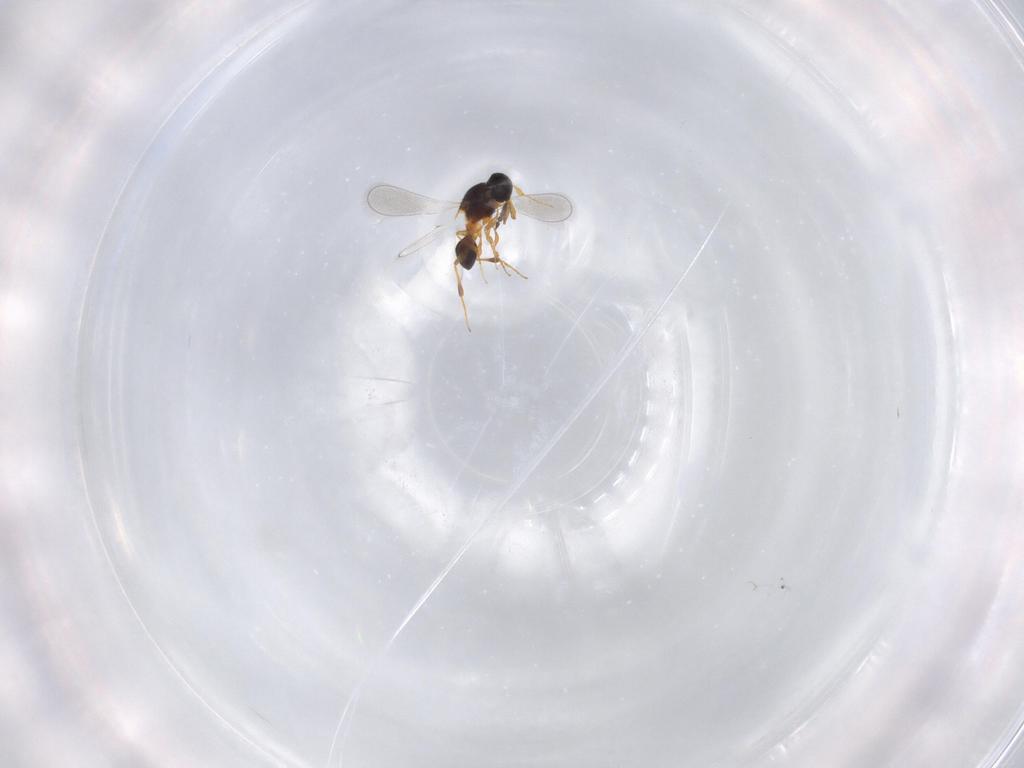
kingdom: Animalia
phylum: Arthropoda
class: Insecta
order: Hymenoptera
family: Platygastridae
